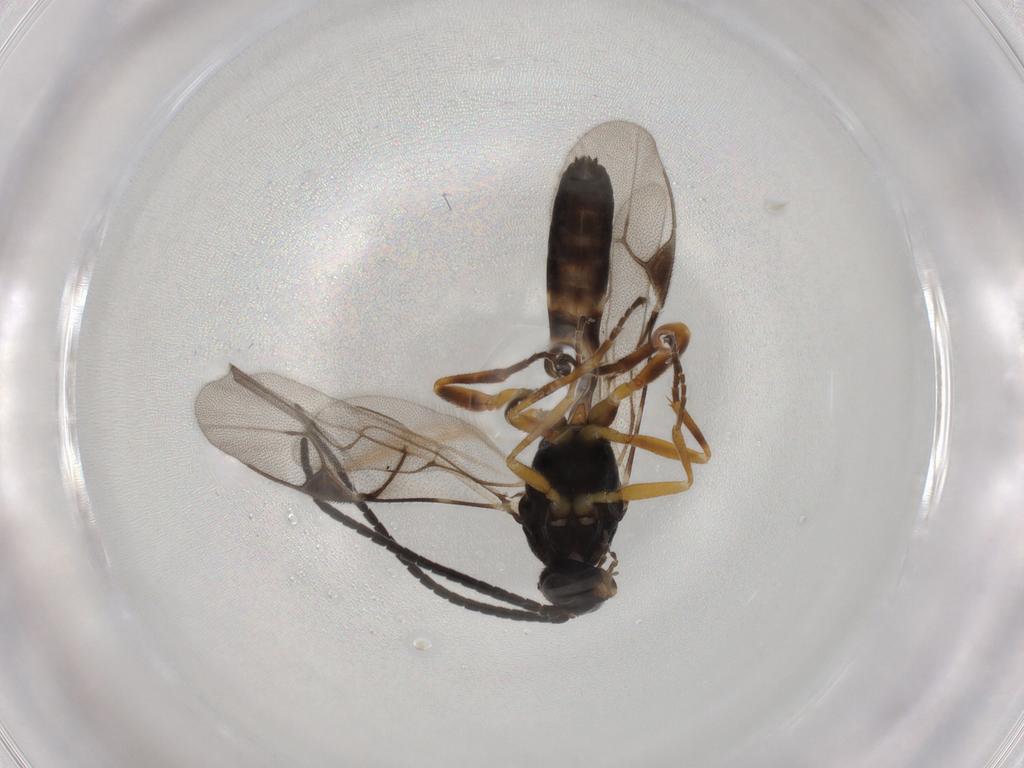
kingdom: Animalia
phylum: Arthropoda
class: Insecta
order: Hymenoptera
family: Braconidae
